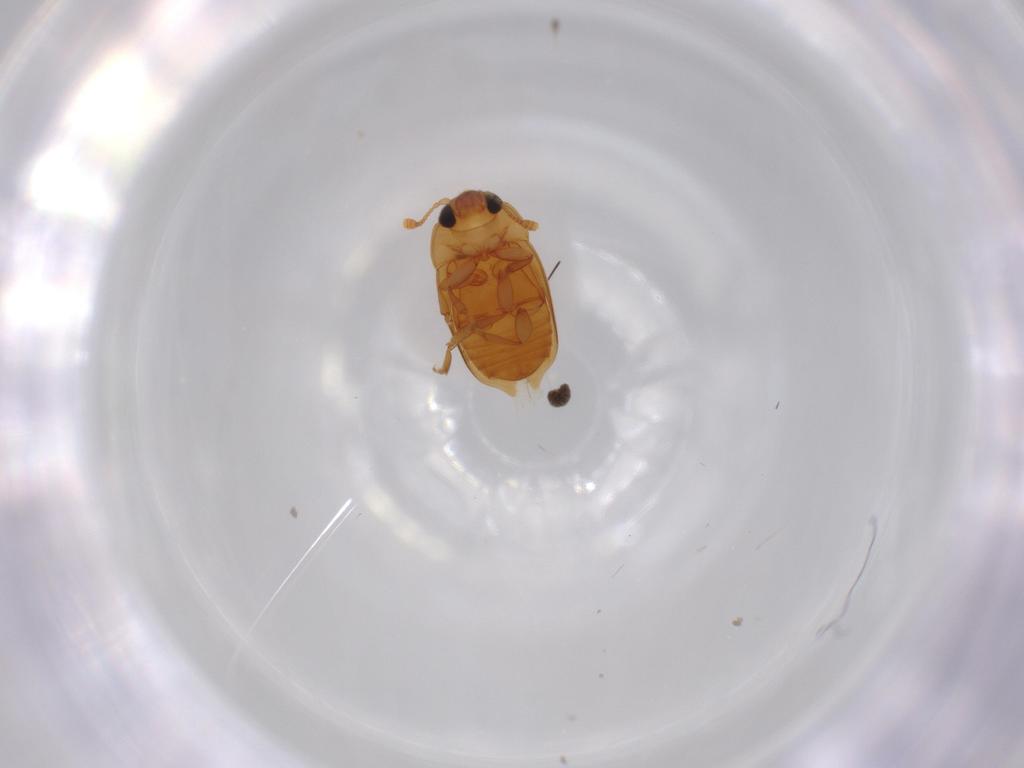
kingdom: Animalia
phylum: Arthropoda
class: Insecta
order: Coleoptera
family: Nitidulidae
